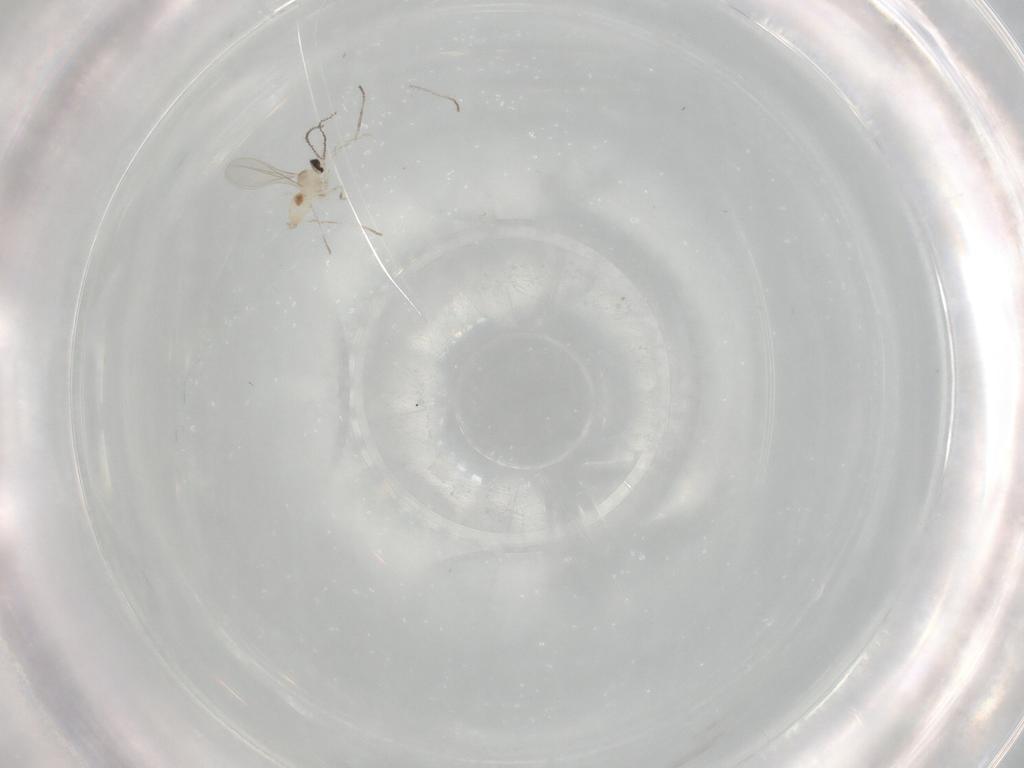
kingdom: Animalia
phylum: Arthropoda
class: Insecta
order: Diptera
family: Cecidomyiidae
